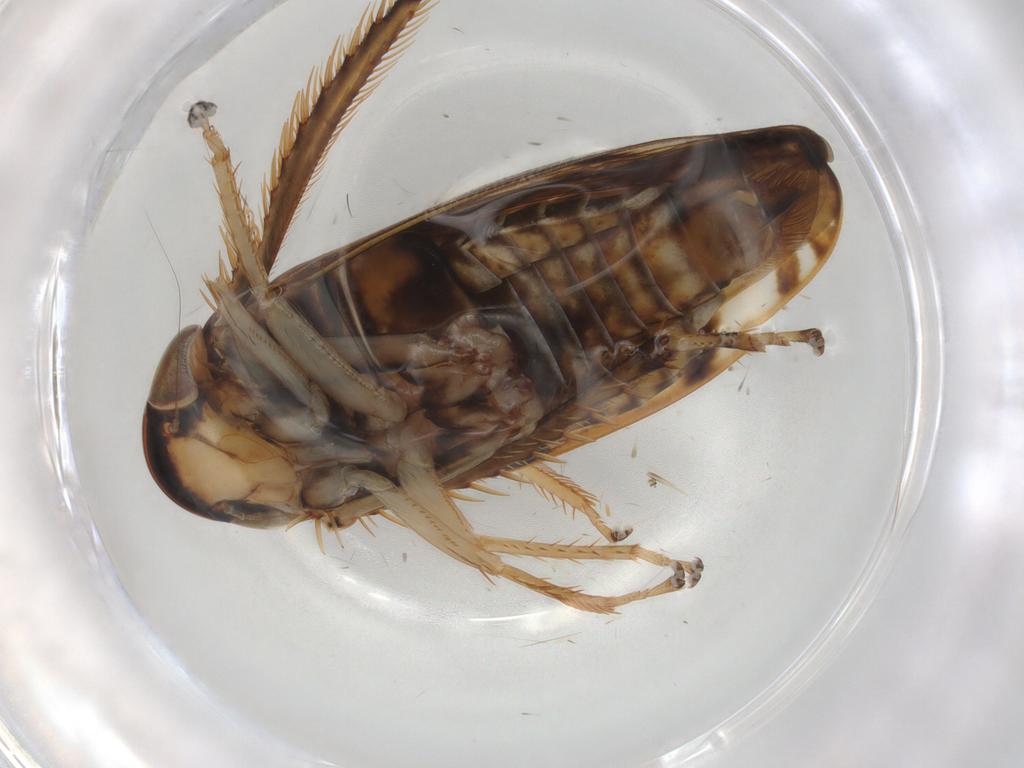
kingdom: Animalia
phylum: Arthropoda
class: Insecta
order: Hemiptera
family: Cicadellidae
